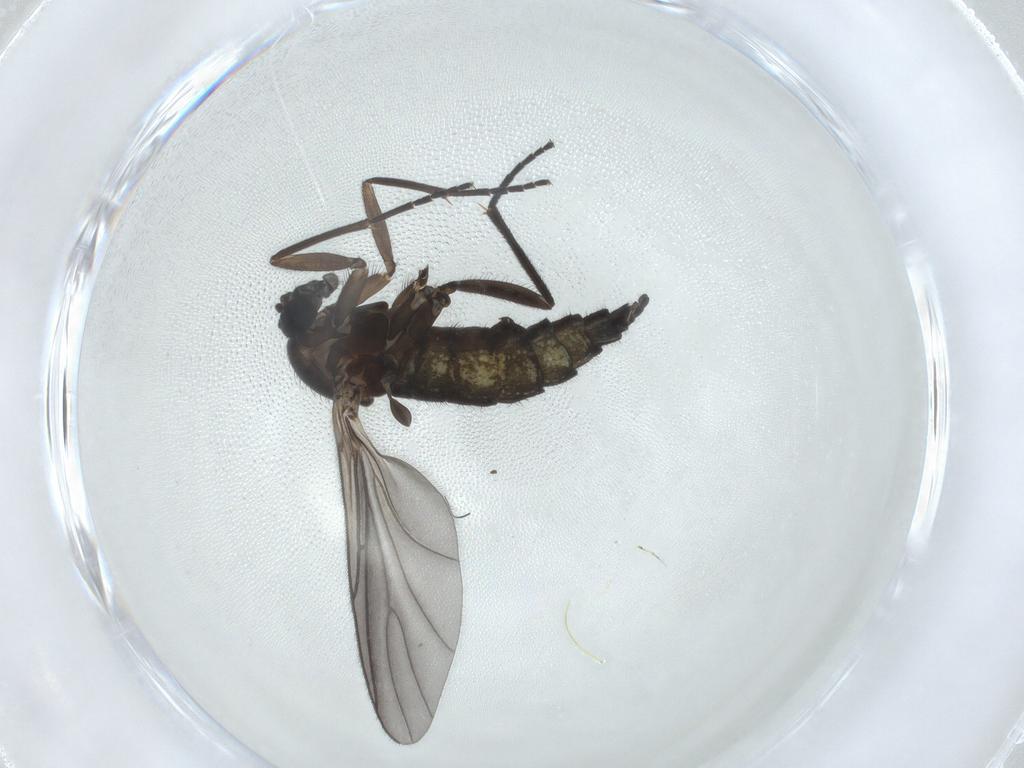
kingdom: Animalia
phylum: Arthropoda
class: Insecta
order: Diptera
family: Sciaridae
